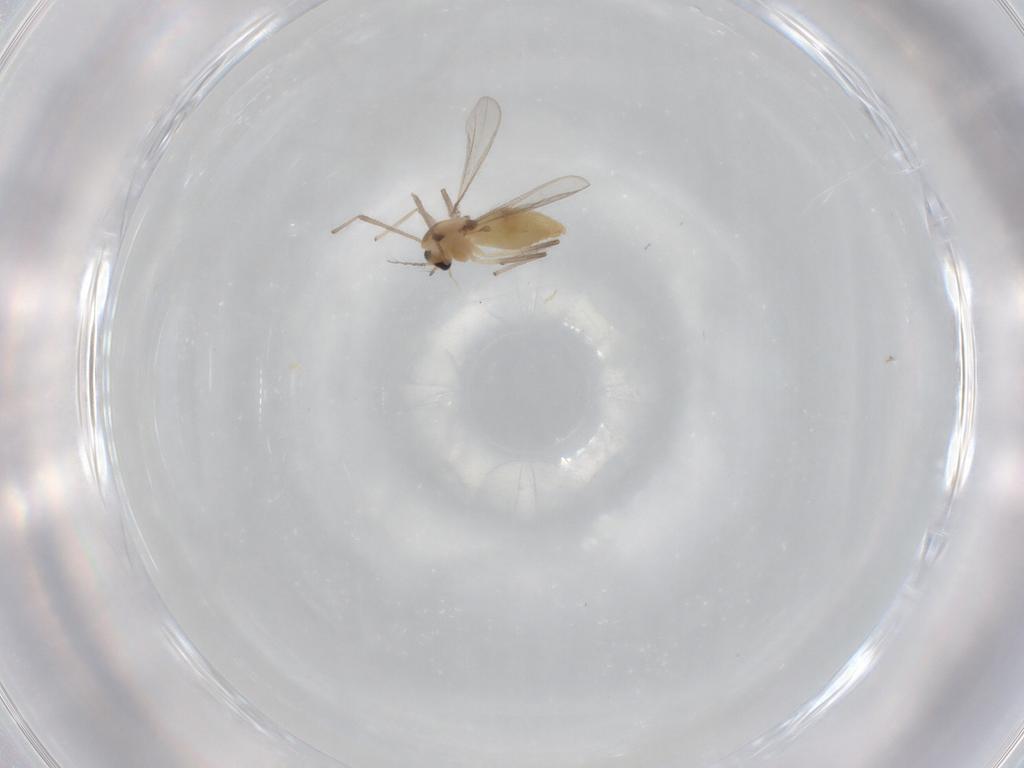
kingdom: Animalia
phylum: Arthropoda
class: Insecta
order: Diptera
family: Chironomidae
